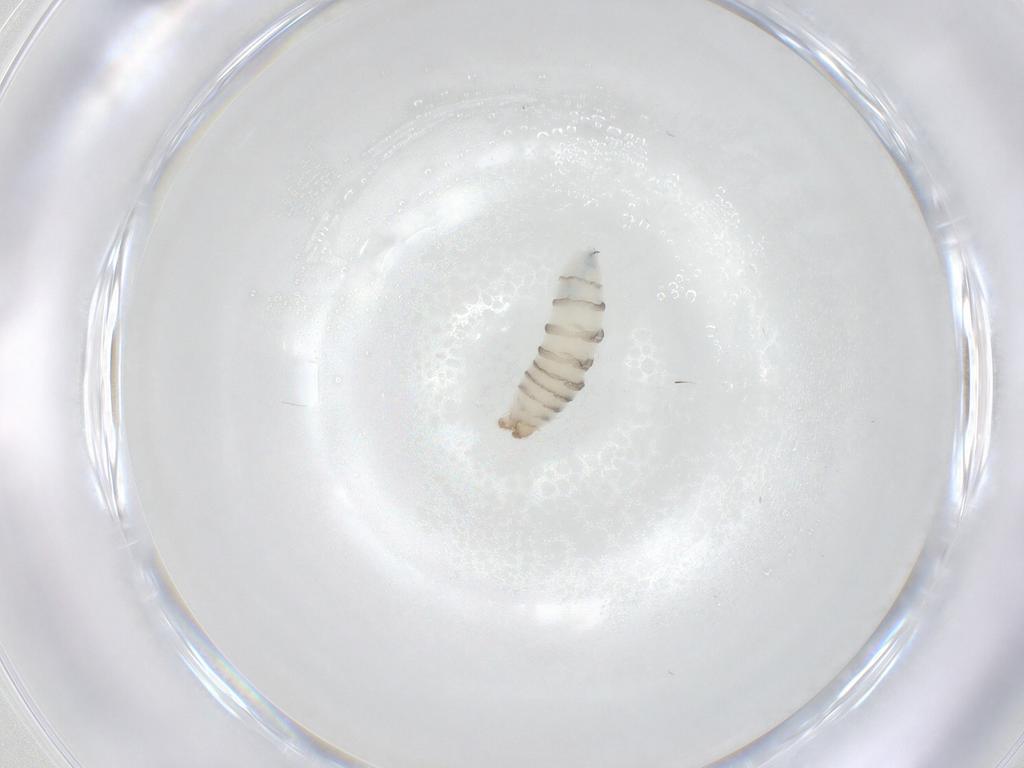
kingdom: Animalia
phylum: Arthropoda
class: Insecta
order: Diptera
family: Sarcophagidae
